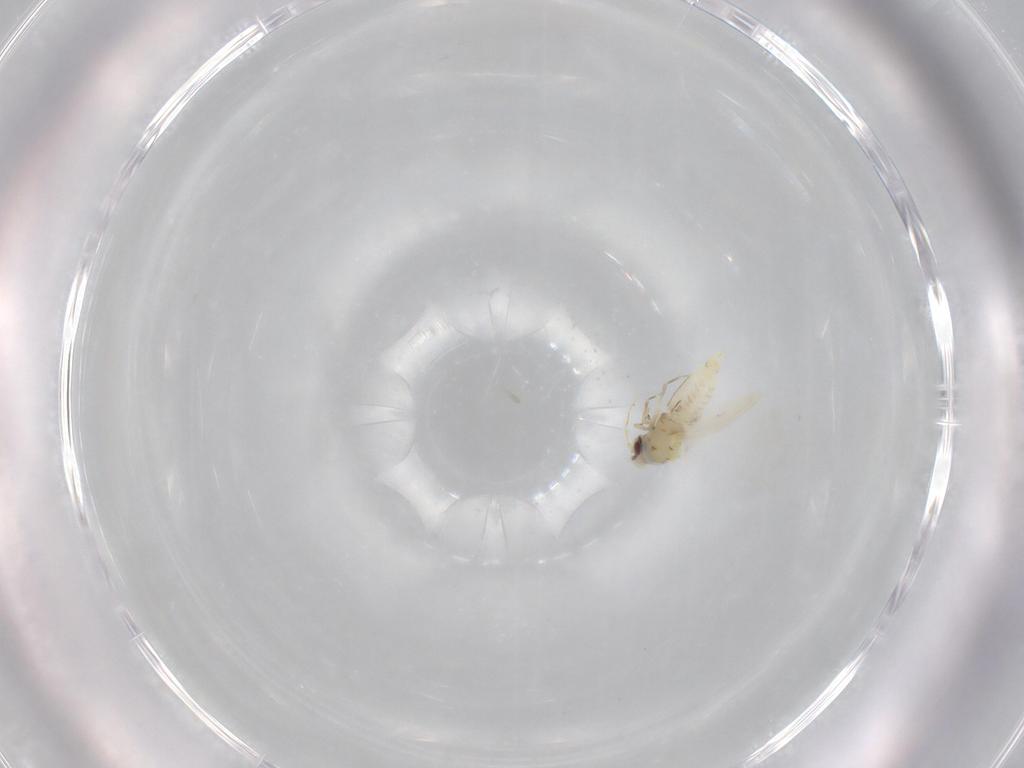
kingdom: Animalia
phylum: Arthropoda
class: Insecta
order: Hemiptera
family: Aleyrodidae
